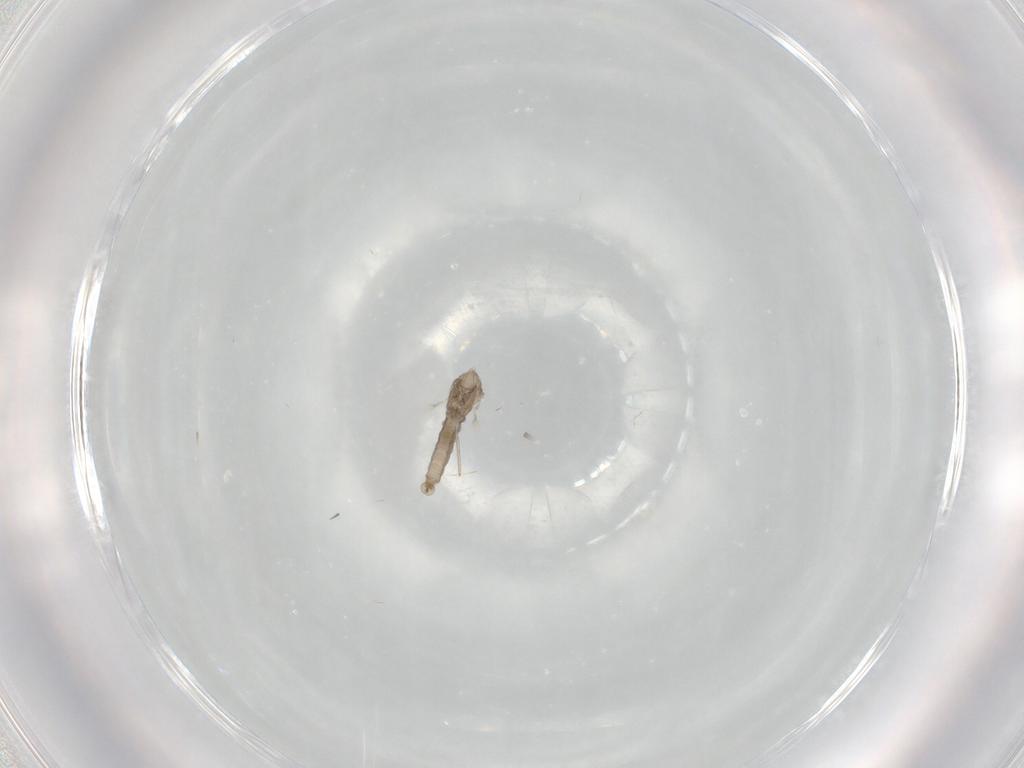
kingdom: Animalia
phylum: Arthropoda
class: Insecta
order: Diptera
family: Cecidomyiidae
